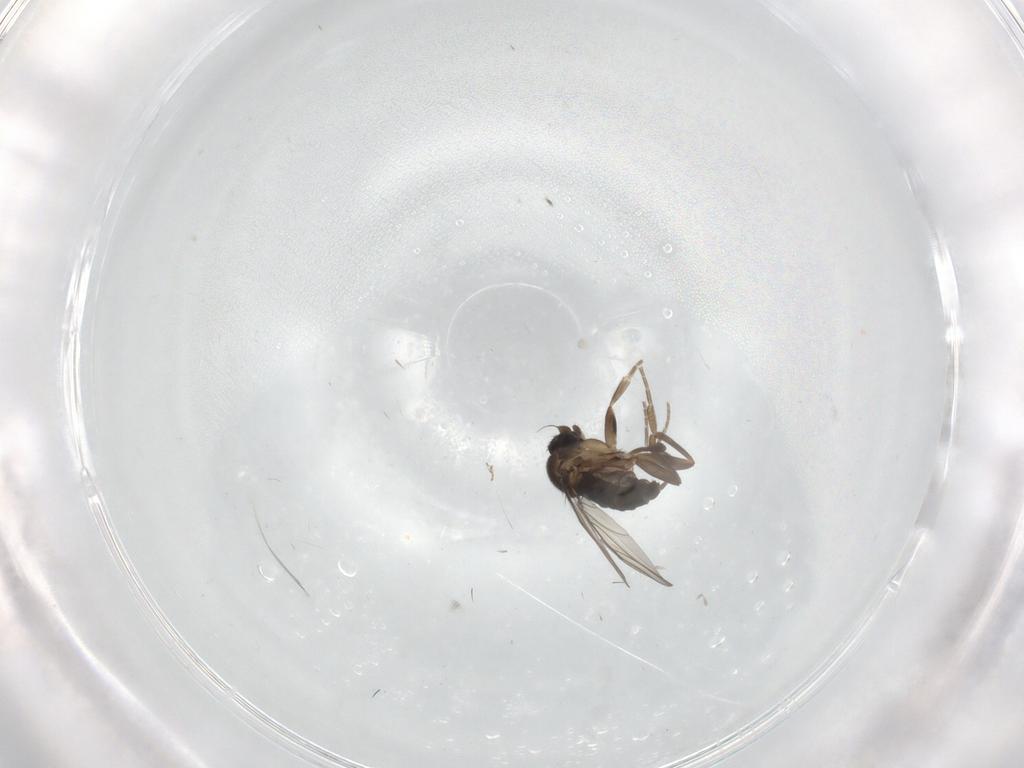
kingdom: Animalia
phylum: Arthropoda
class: Insecta
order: Diptera
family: Phoridae
